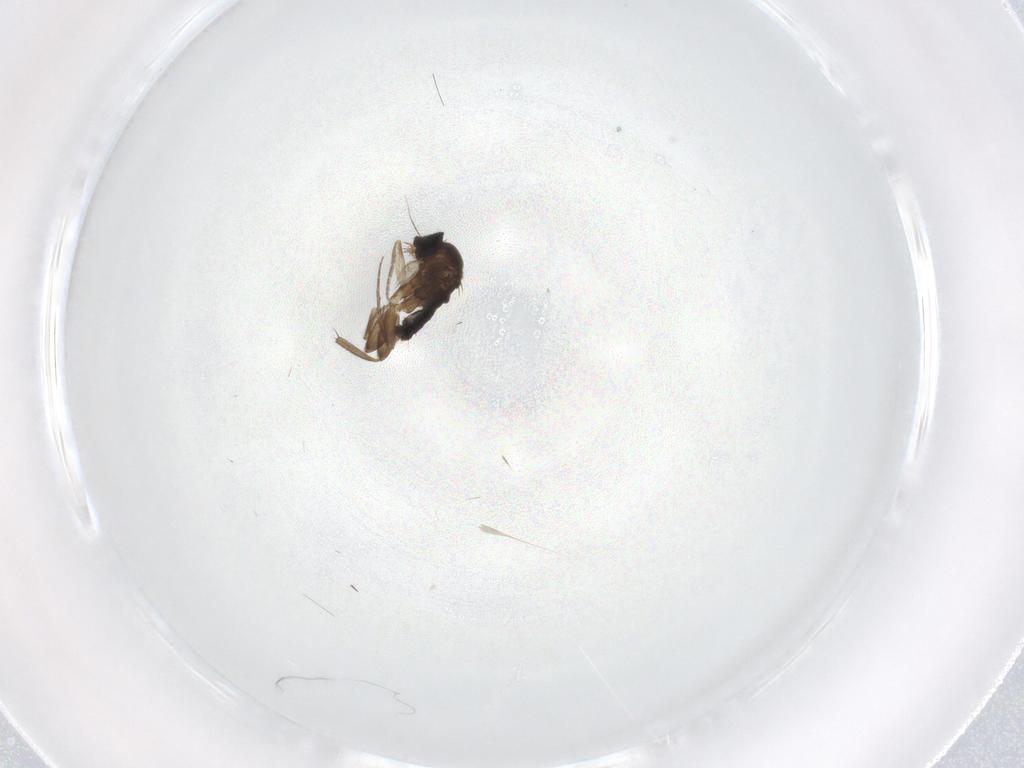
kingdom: Animalia
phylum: Arthropoda
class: Insecta
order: Diptera
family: Phoridae
